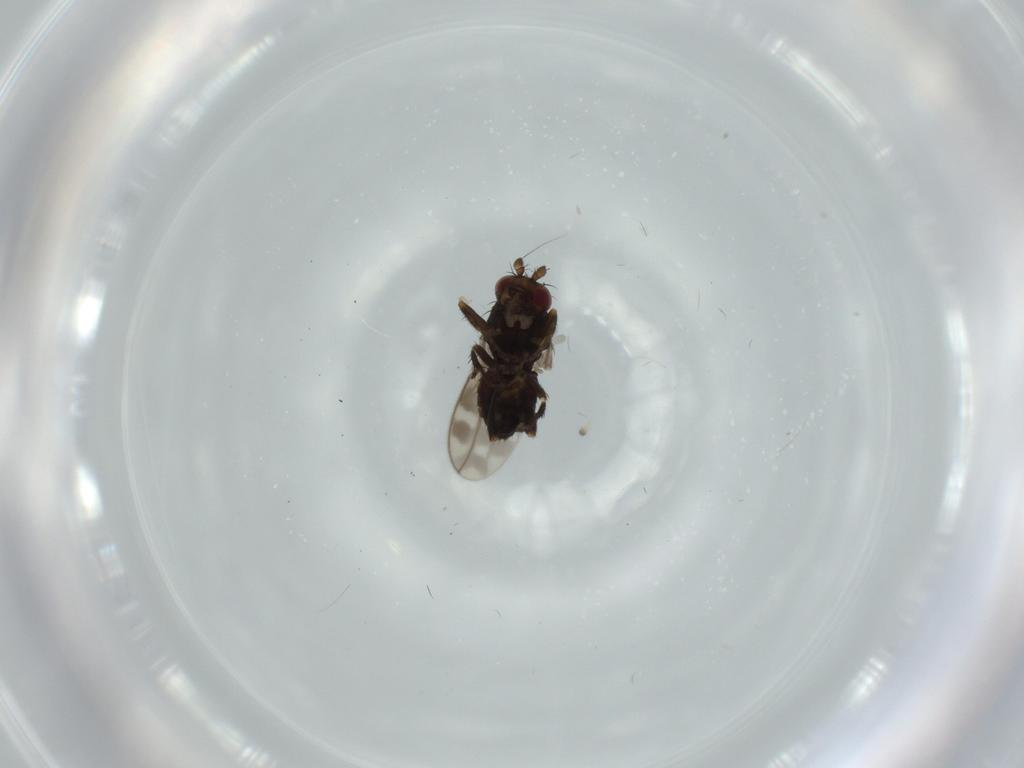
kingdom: Animalia
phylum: Arthropoda
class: Insecta
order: Diptera
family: Sphaeroceridae
